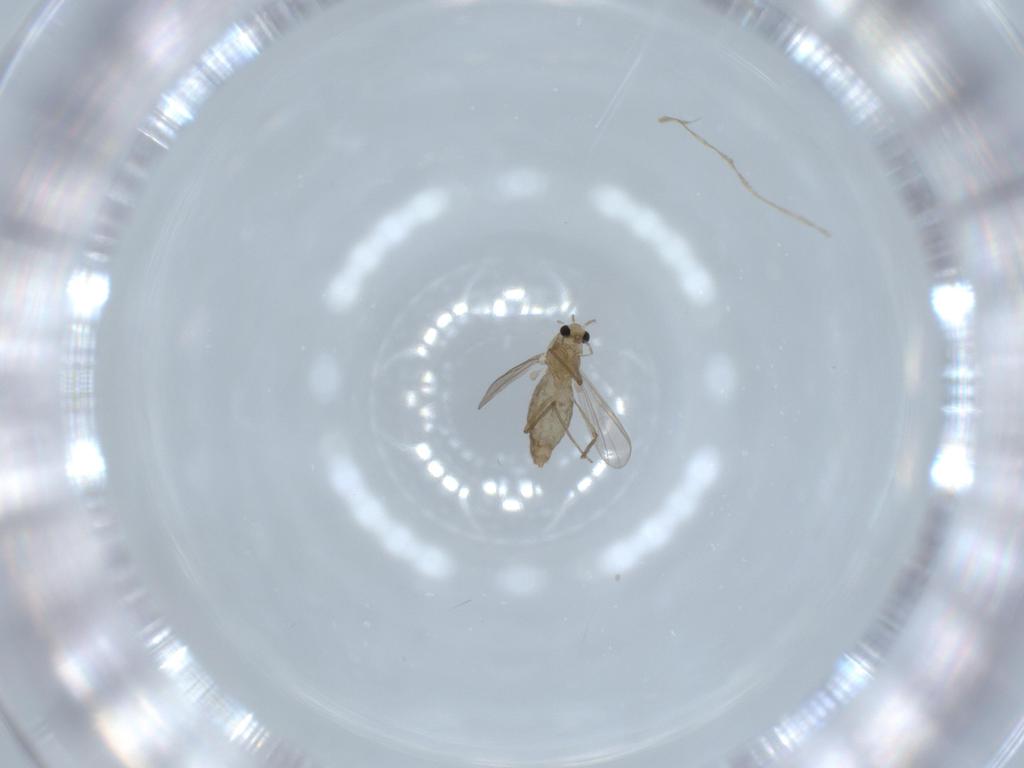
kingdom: Animalia
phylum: Arthropoda
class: Insecta
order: Diptera
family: Chironomidae
